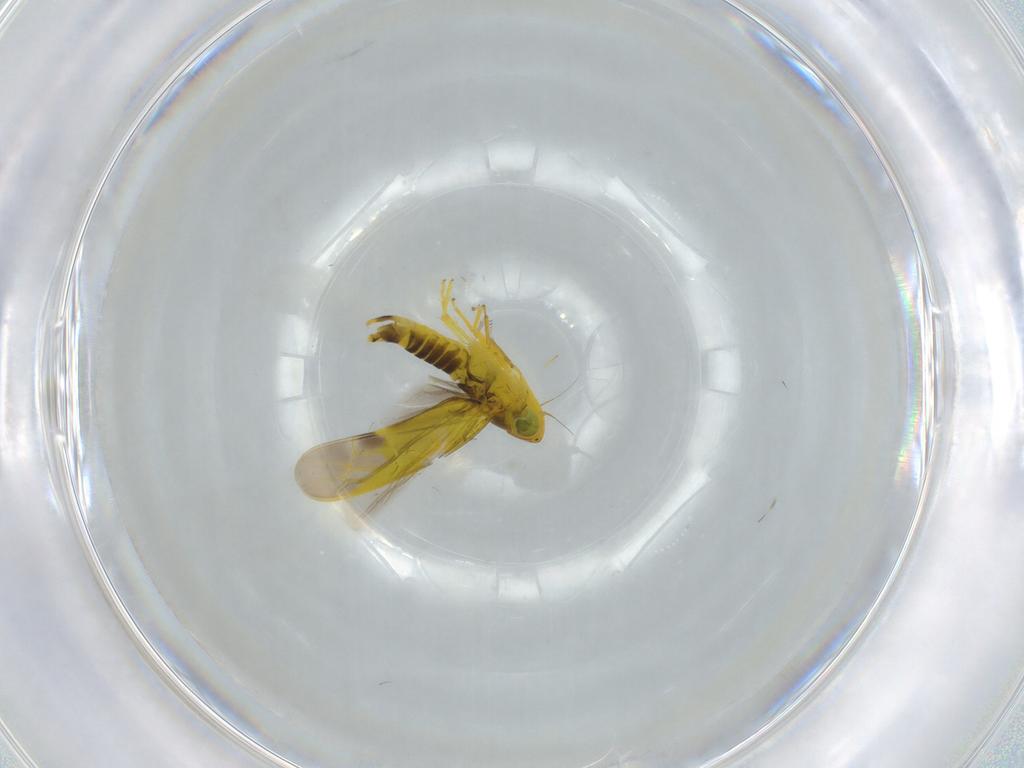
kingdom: Animalia
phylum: Arthropoda
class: Insecta
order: Hemiptera
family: Cicadellidae
